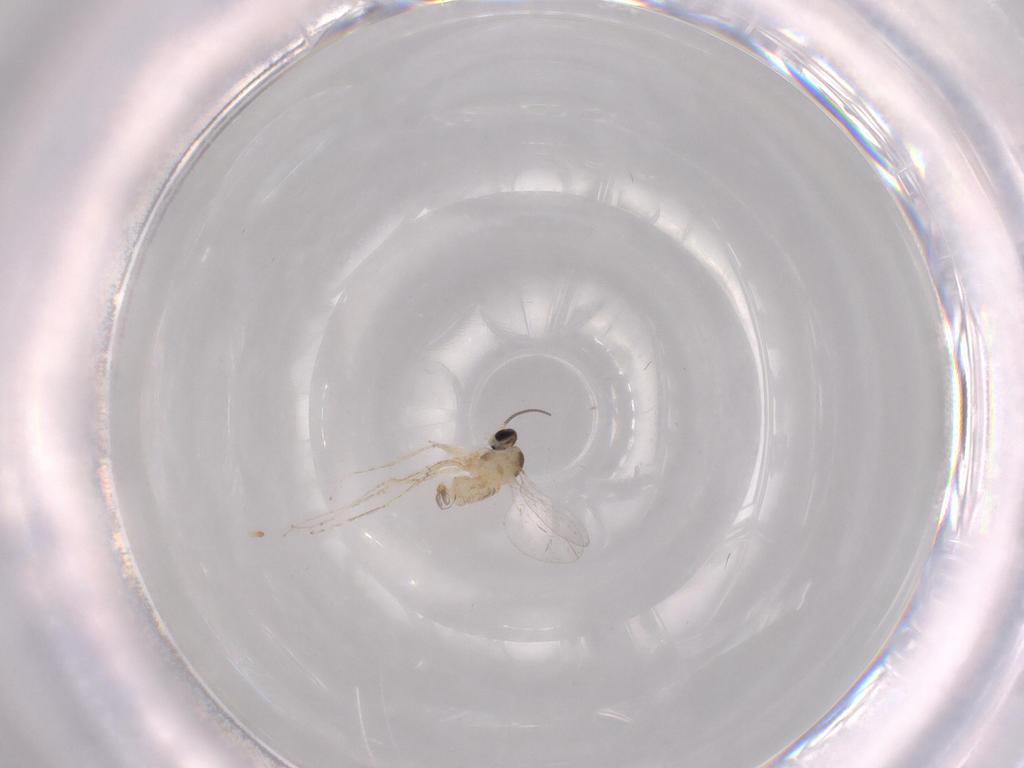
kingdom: Animalia
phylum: Arthropoda
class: Insecta
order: Diptera
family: Cecidomyiidae
